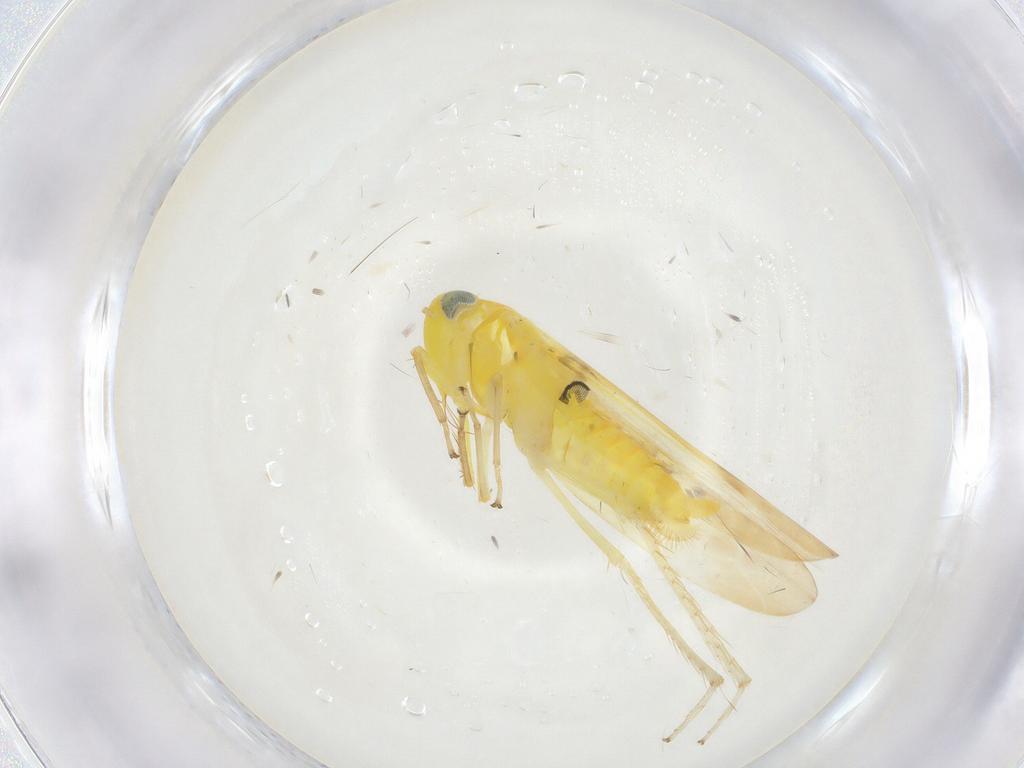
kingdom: Animalia
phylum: Arthropoda
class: Insecta
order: Hemiptera
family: Cicadellidae
